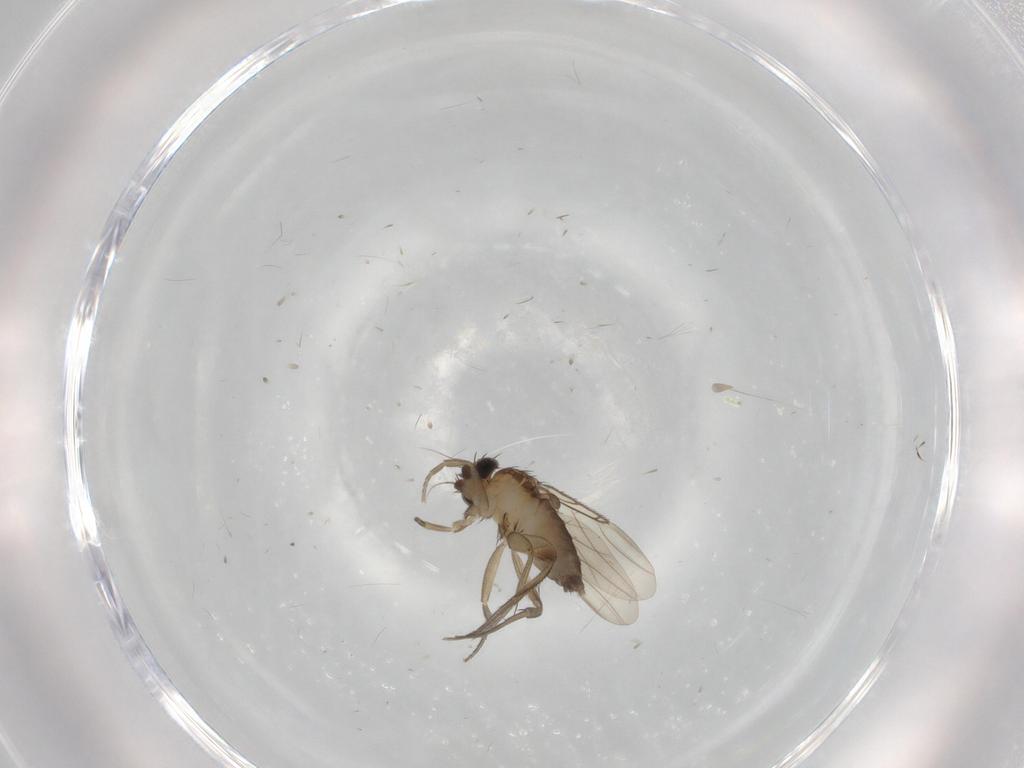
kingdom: Animalia
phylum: Arthropoda
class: Insecta
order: Diptera
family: Phoridae
